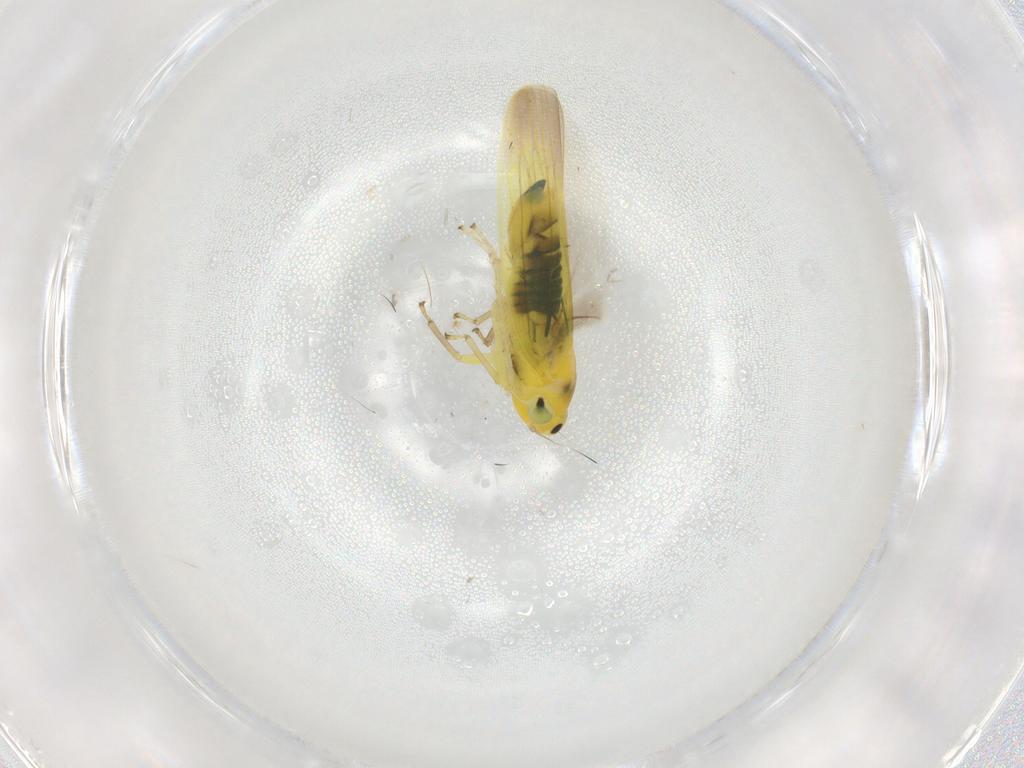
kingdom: Animalia
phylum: Arthropoda
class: Insecta
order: Hemiptera
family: Cicadellidae
